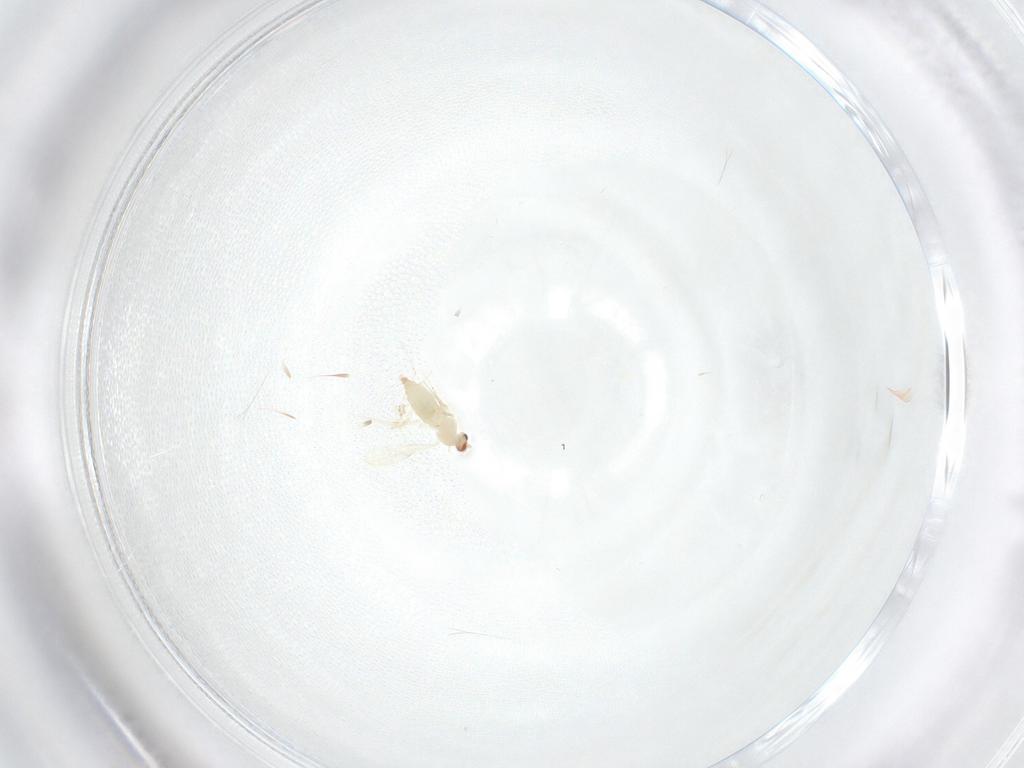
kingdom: Animalia
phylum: Arthropoda
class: Insecta
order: Diptera
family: Cecidomyiidae
